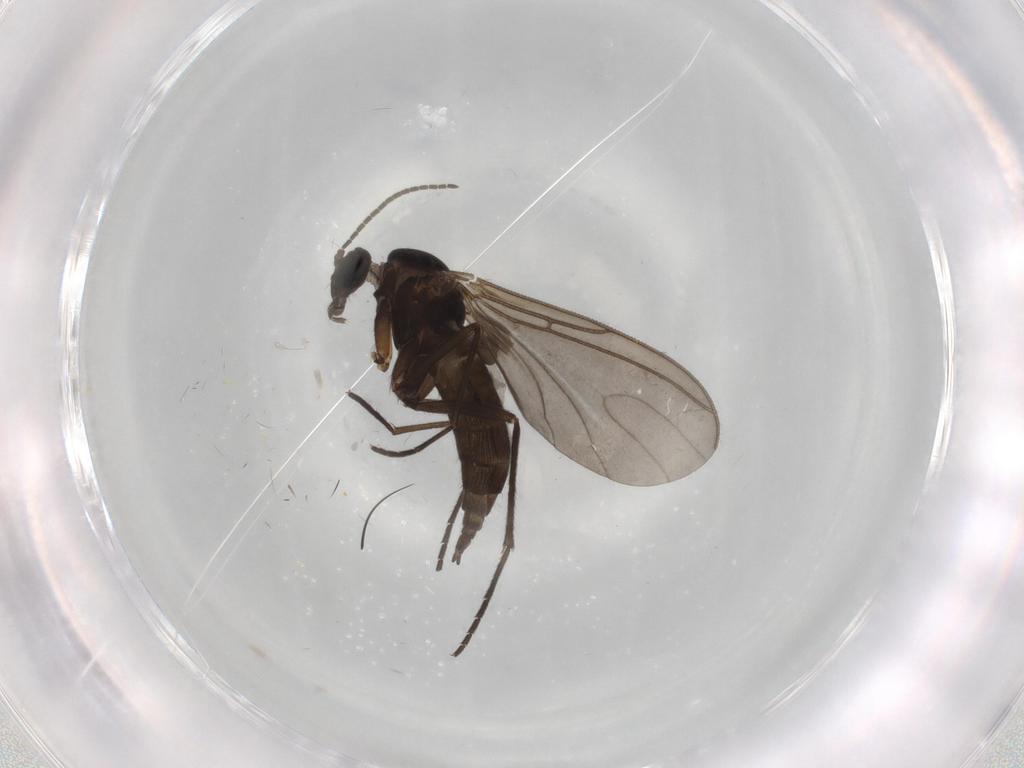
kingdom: Animalia
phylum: Arthropoda
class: Insecta
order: Diptera
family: Sciaridae
